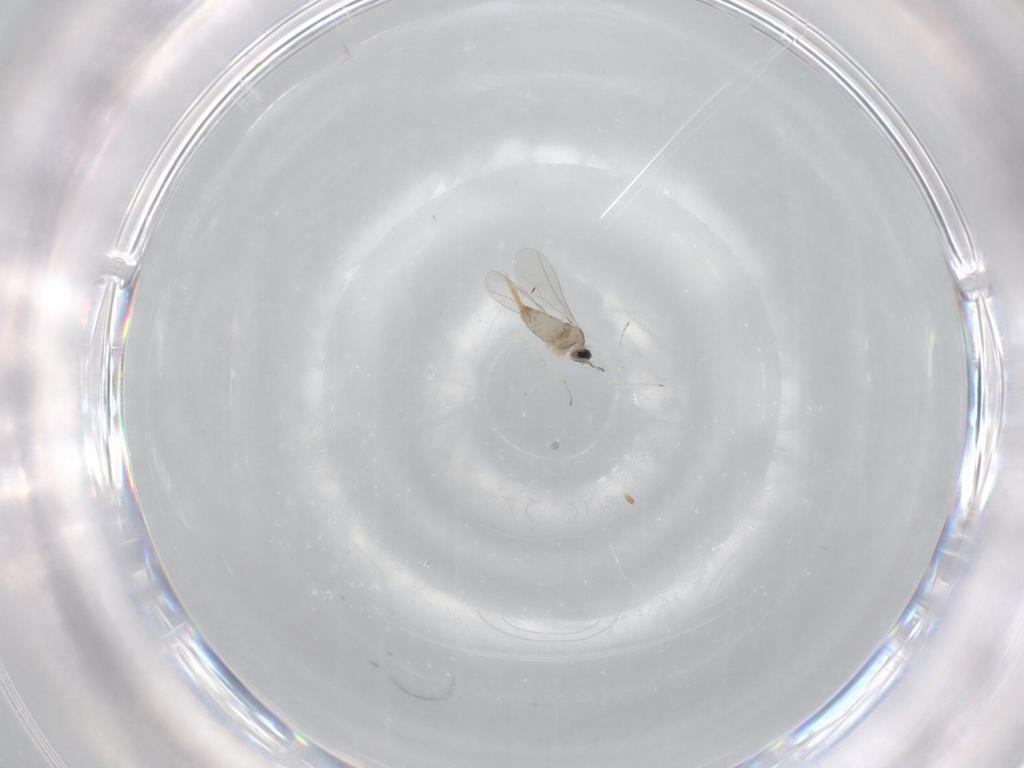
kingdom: Animalia
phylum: Arthropoda
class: Insecta
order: Diptera
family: Cecidomyiidae
